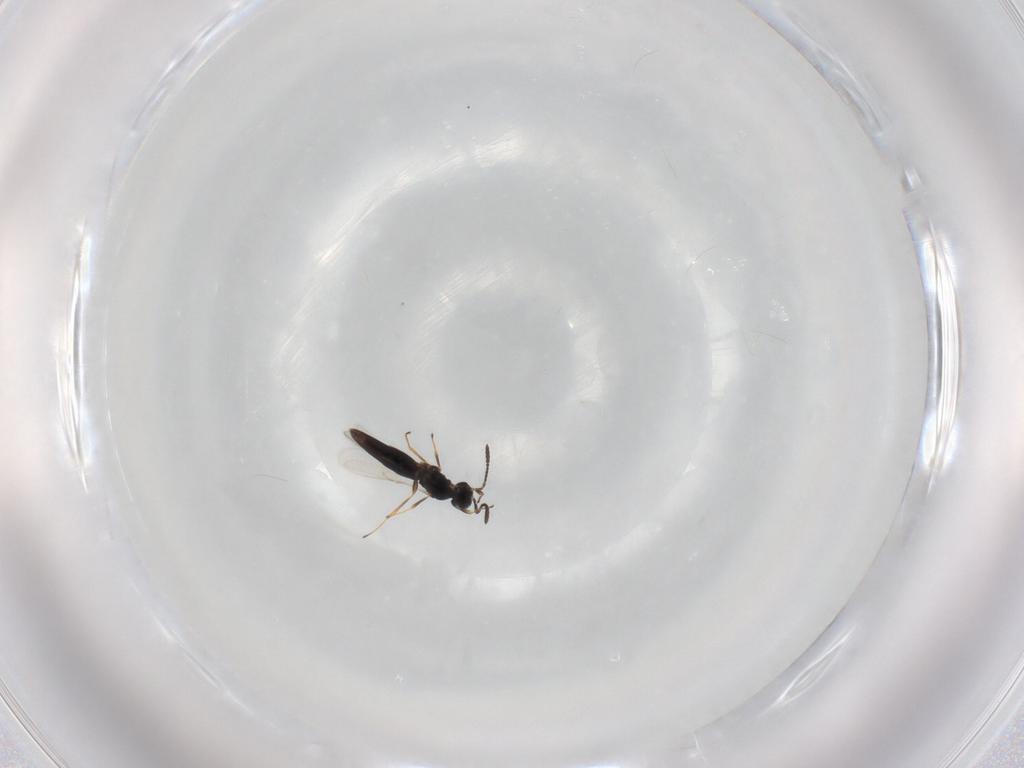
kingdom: Animalia
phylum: Arthropoda
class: Insecta
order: Hymenoptera
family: Scelionidae
